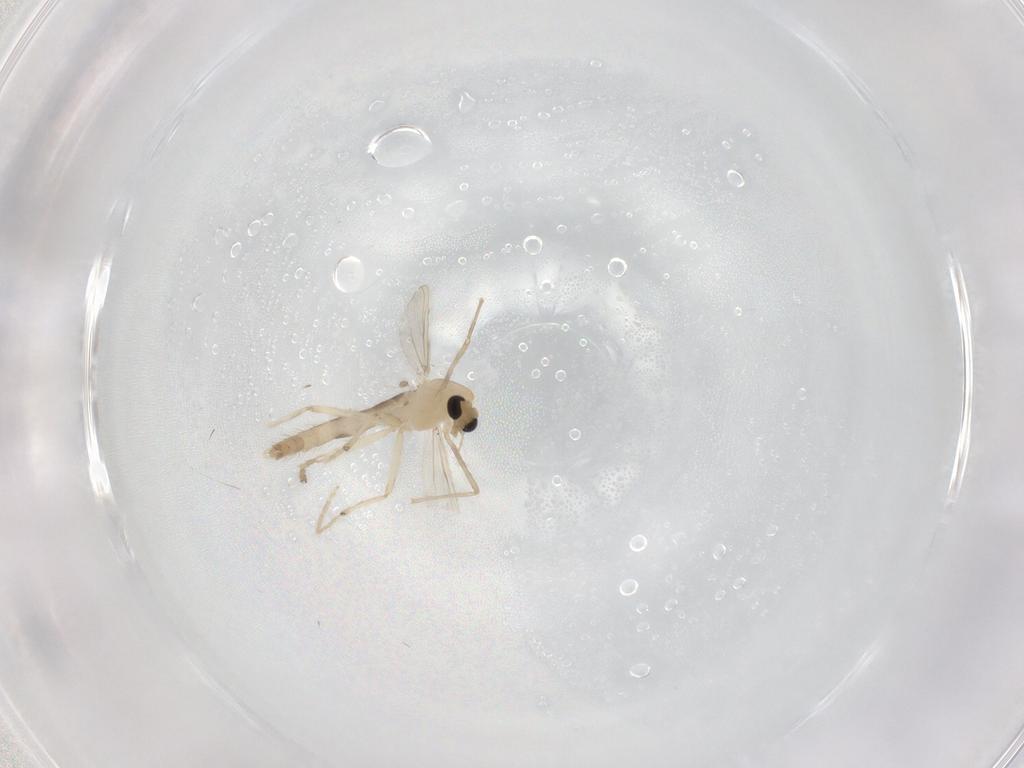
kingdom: Animalia
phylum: Arthropoda
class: Insecta
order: Diptera
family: Chironomidae
